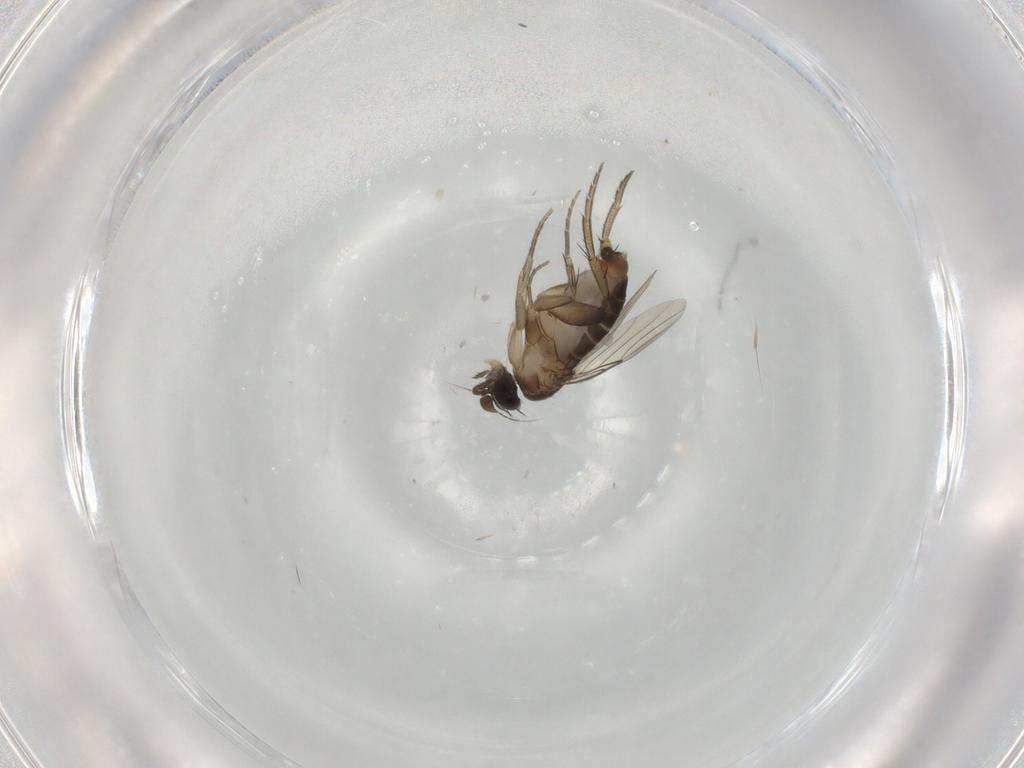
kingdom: Animalia
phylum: Arthropoda
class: Insecta
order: Diptera
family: Phoridae
